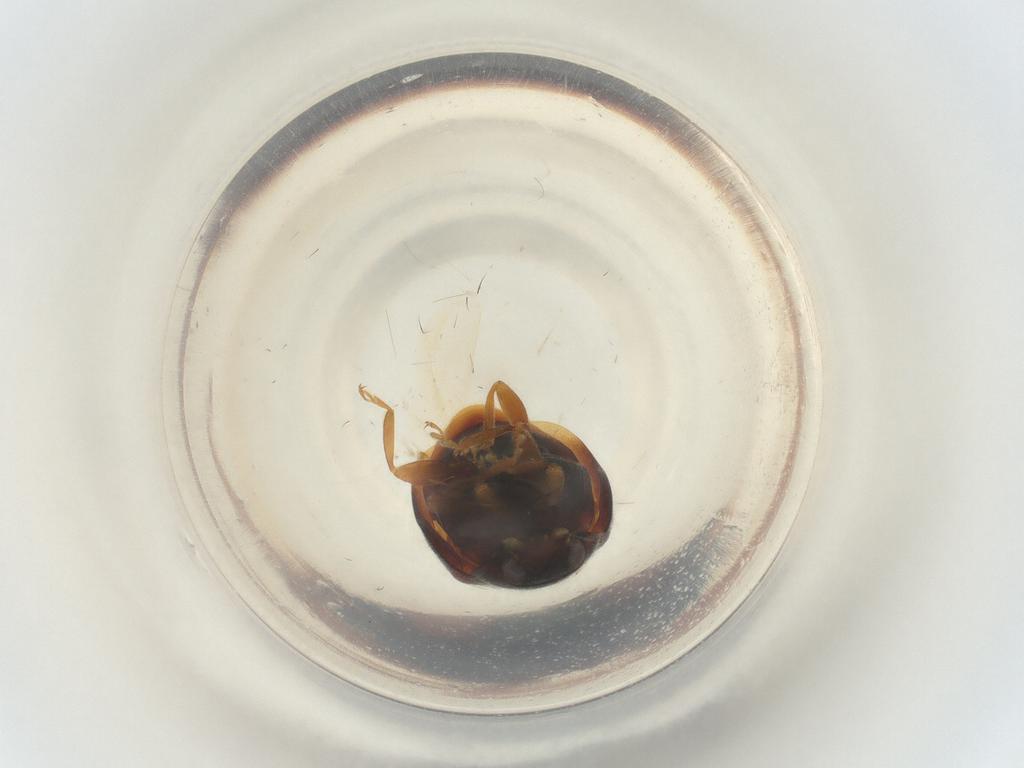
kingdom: Animalia
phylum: Arthropoda
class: Insecta
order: Coleoptera
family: Coccinellidae
